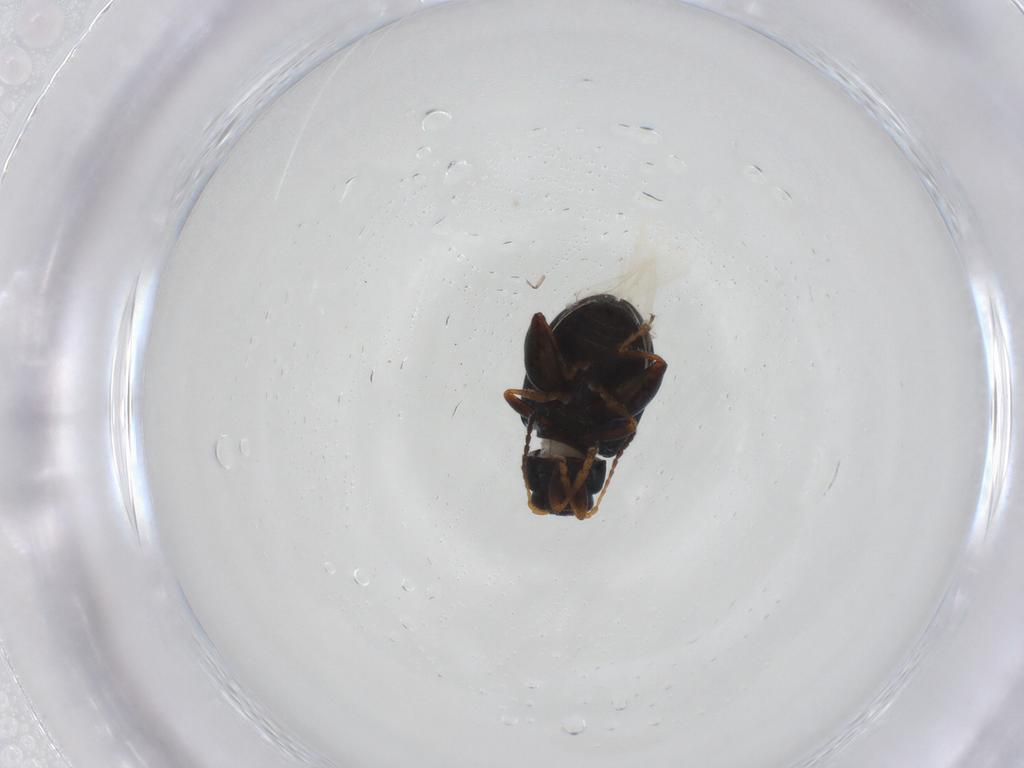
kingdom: Animalia
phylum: Arthropoda
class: Insecta
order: Coleoptera
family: Chrysomelidae
